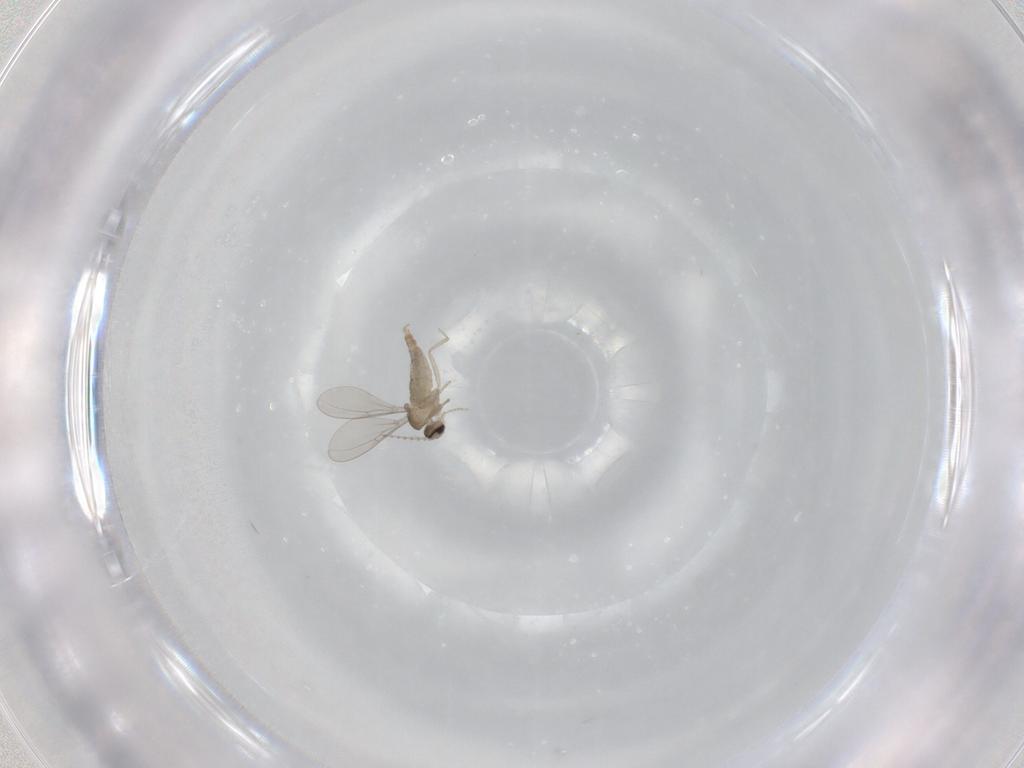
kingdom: Animalia
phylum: Arthropoda
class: Insecta
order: Diptera
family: Cecidomyiidae
